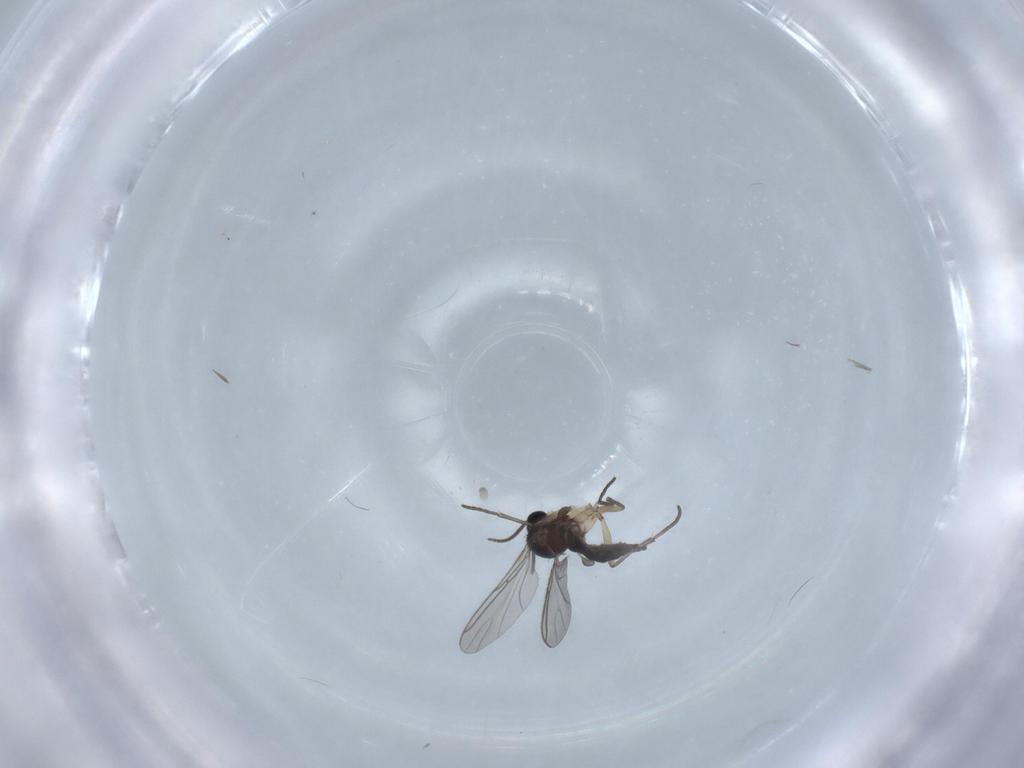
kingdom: Animalia
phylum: Arthropoda
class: Insecta
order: Diptera
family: Sciaridae
